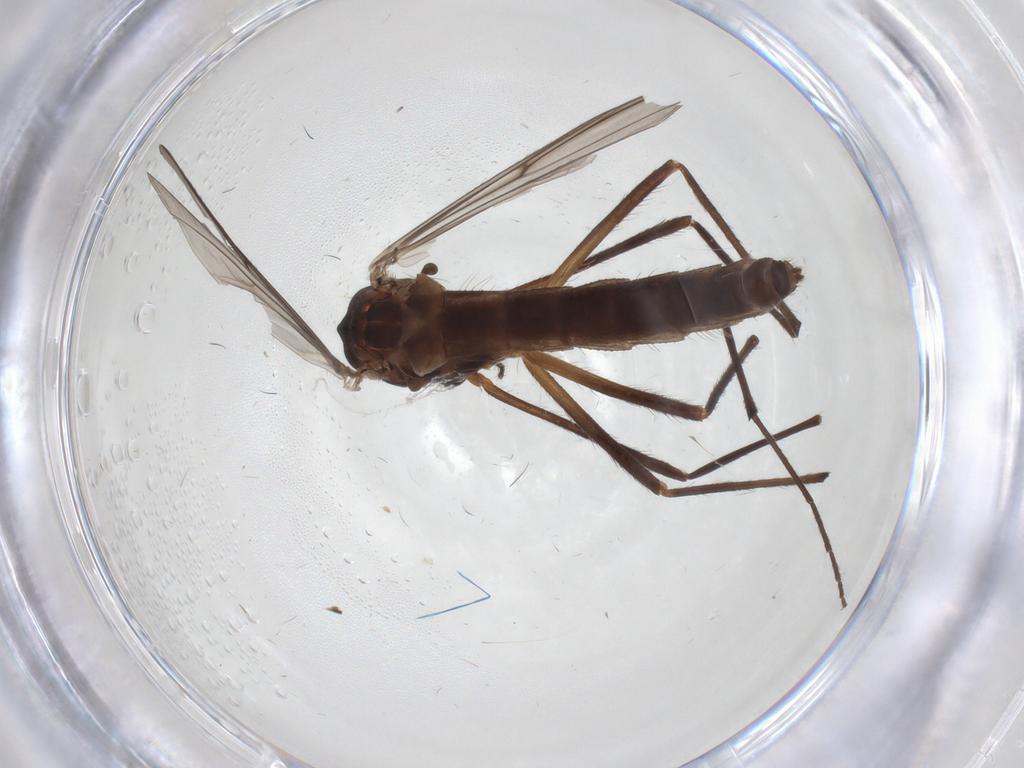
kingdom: Animalia
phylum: Arthropoda
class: Insecta
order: Diptera
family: Chironomidae
